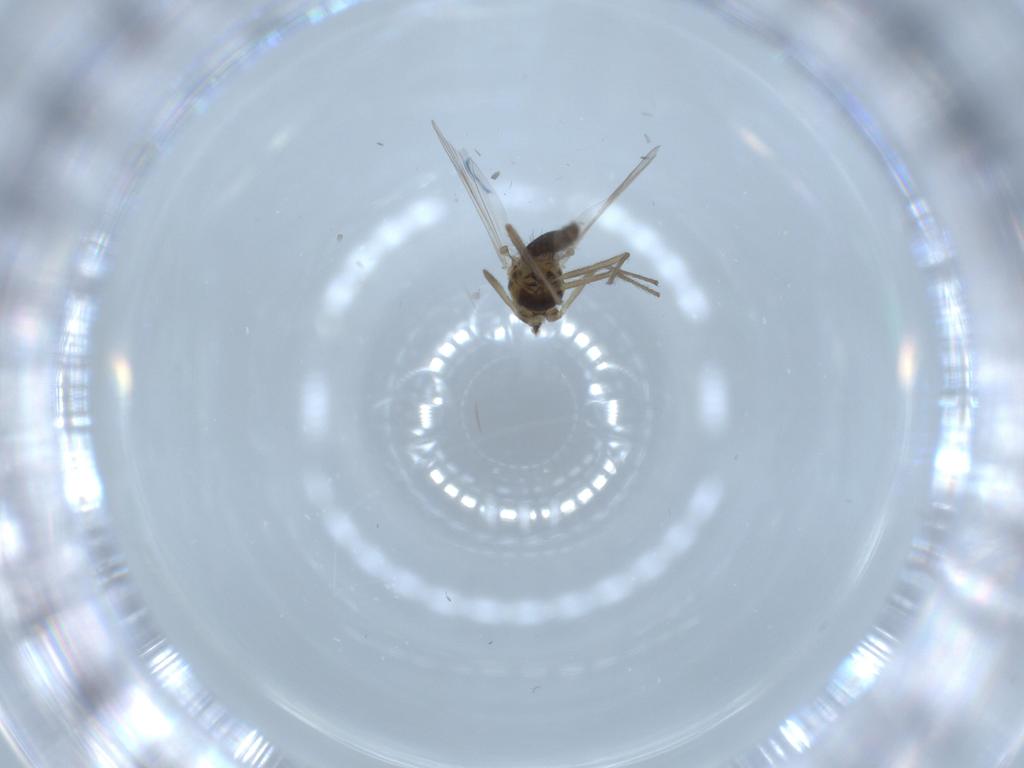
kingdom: Animalia
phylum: Arthropoda
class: Insecta
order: Diptera
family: Chironomidae
